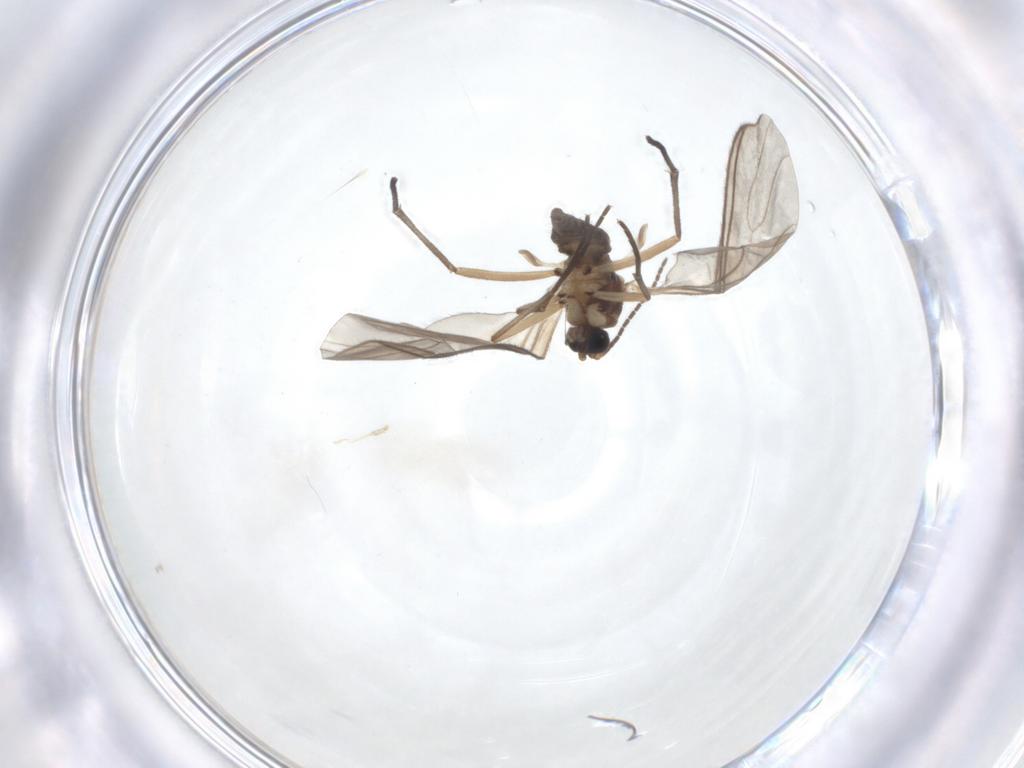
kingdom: Animalia
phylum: Arthropoda
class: Insecta
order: Diptera
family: Sciaridae
